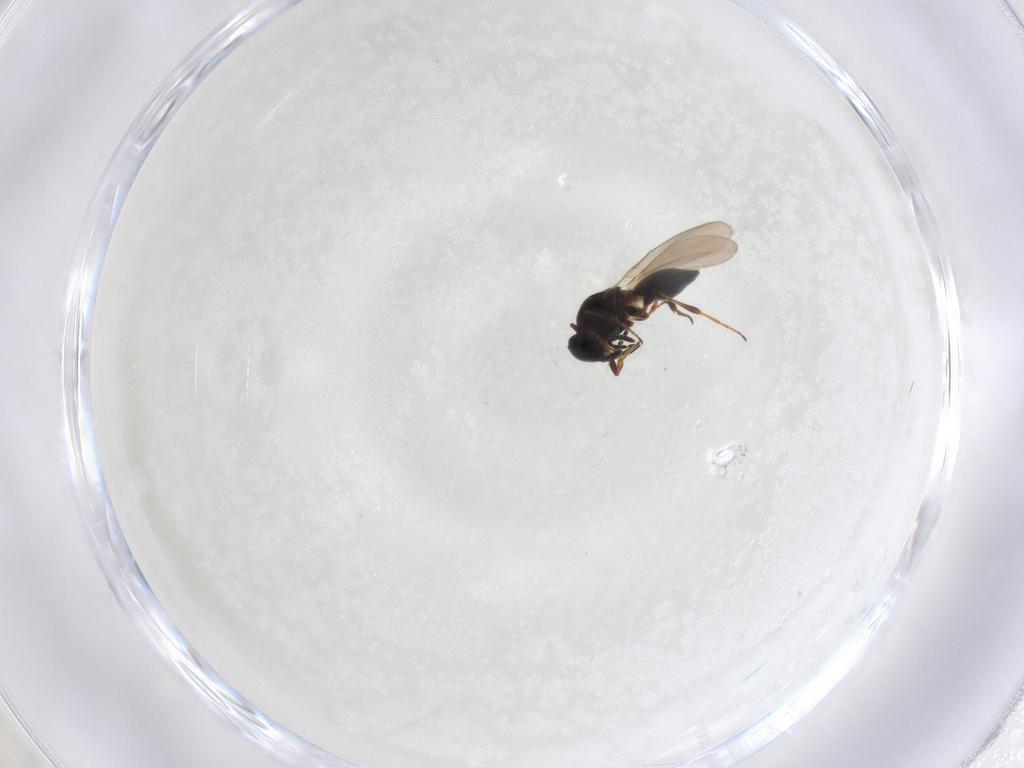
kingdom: Animalia
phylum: Arthropoda
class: Insecta
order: Hymenoptera
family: Platygastridae
